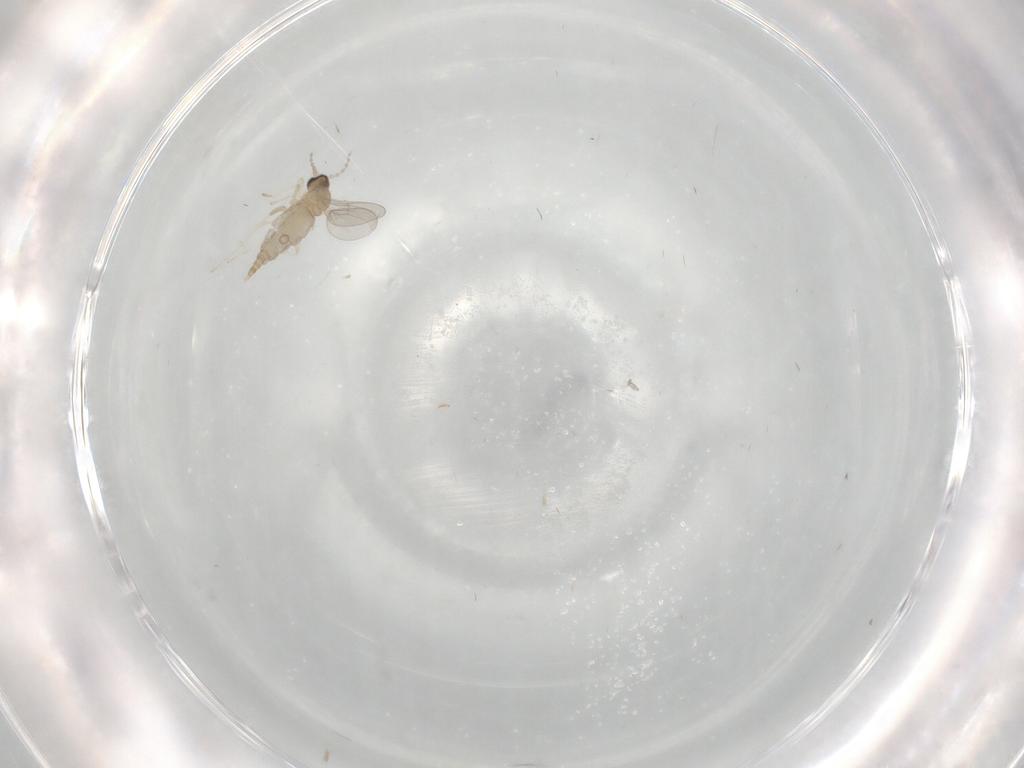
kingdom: Animalia
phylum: Arthropoda
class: Insecta
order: Diptera
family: Cecidomyiidae
